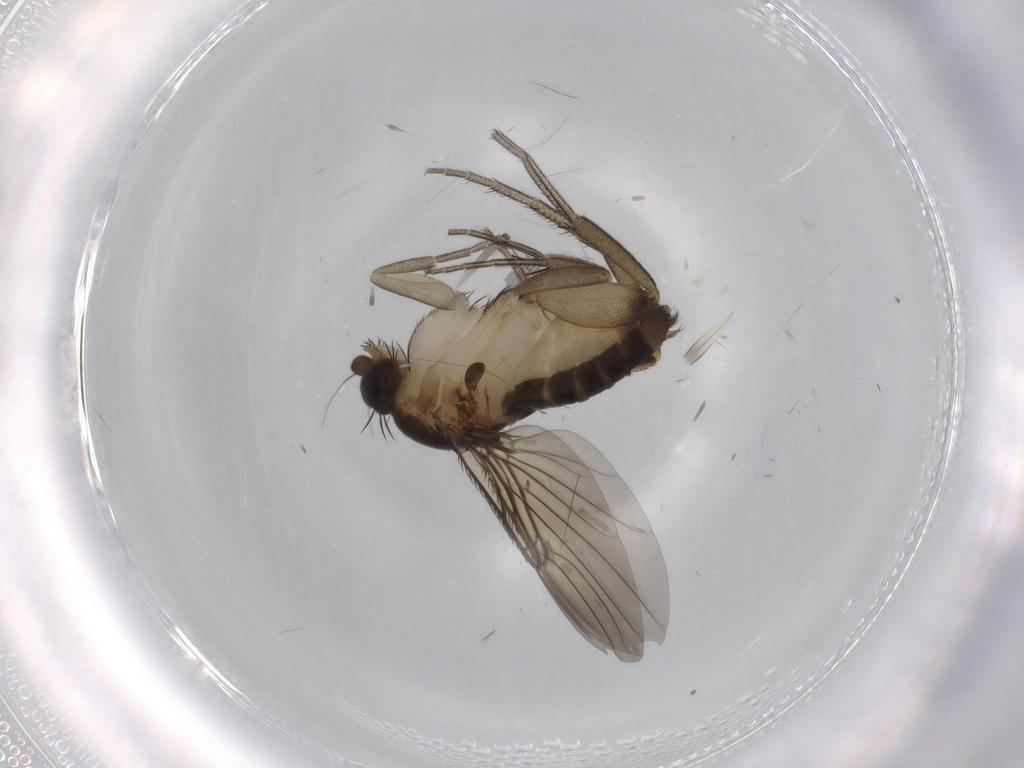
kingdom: Animalia
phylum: Arthropoda
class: Insecta
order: Diptera
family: Phoridae
